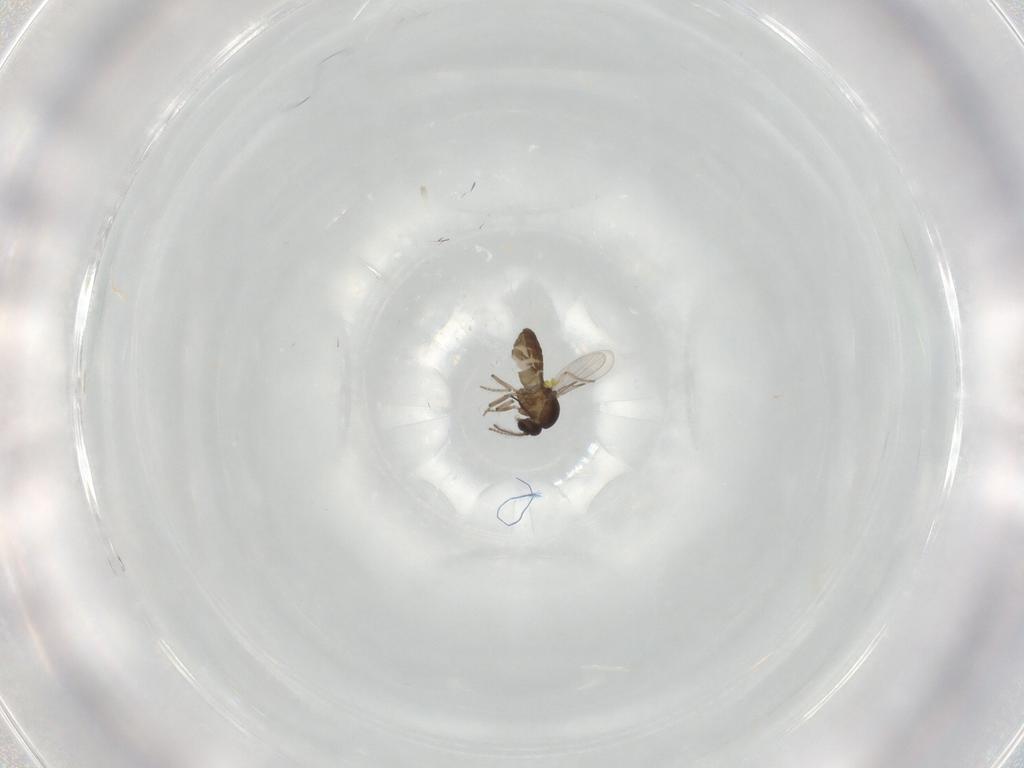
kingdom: Animalia
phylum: Arthropoda
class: Insecta
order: Diptera
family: Ceratopogonidae
